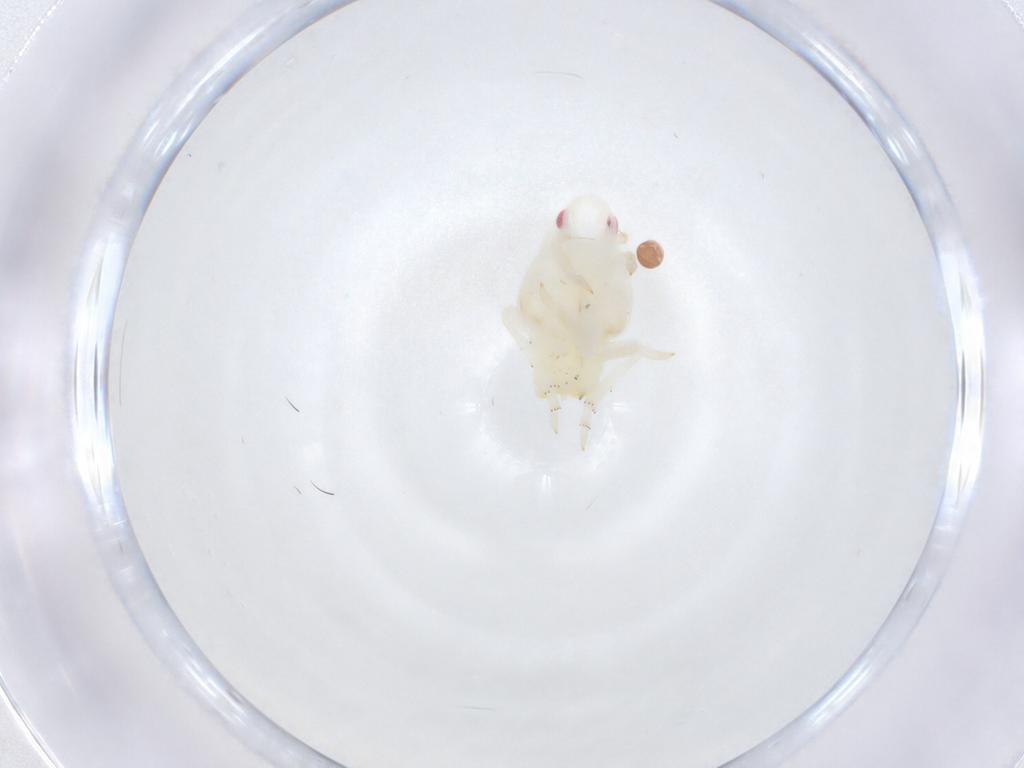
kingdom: Animalia
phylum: Arthropoda
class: Insecta
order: Hemiptera
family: Flatidae
